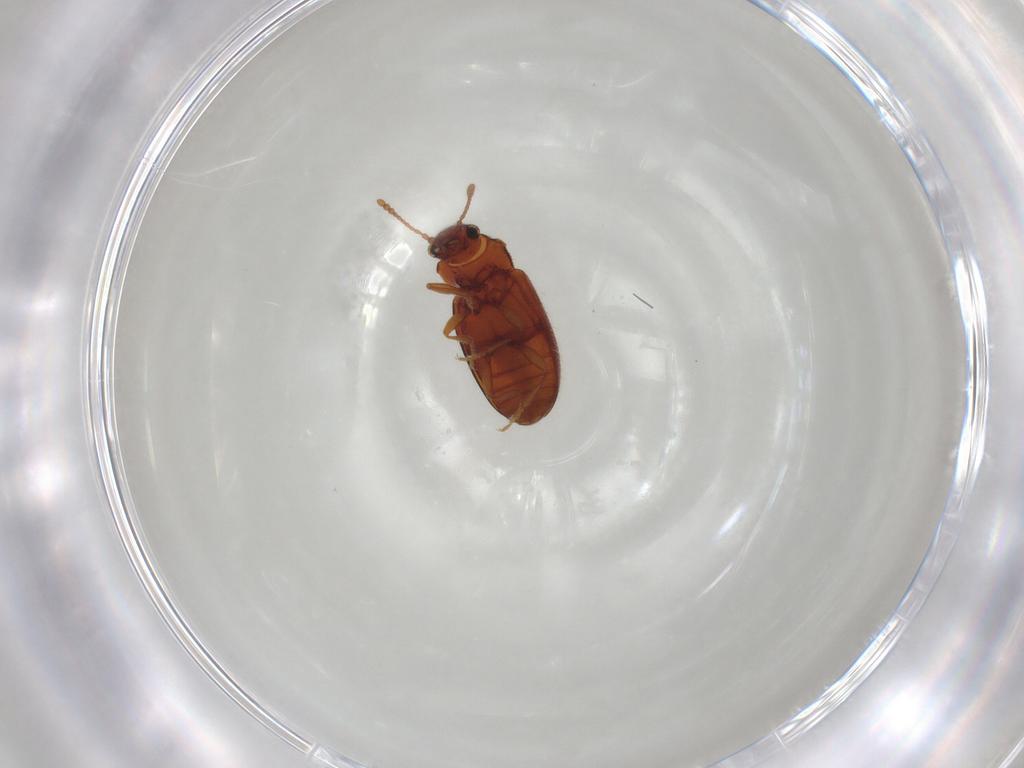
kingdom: Animalia
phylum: Arthropoda
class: Insecta
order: Coleoptera
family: Cryptophagidae
